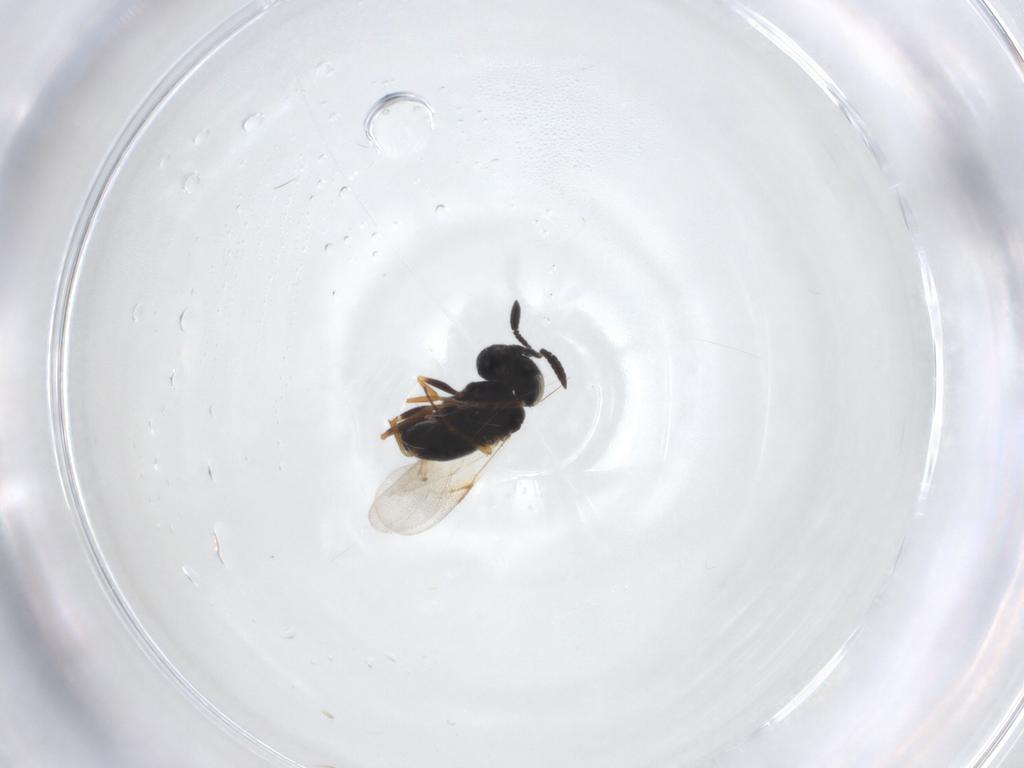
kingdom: Animalia
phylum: Arthropoda
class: Insecta
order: Hymenoptera
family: Scelionidae
